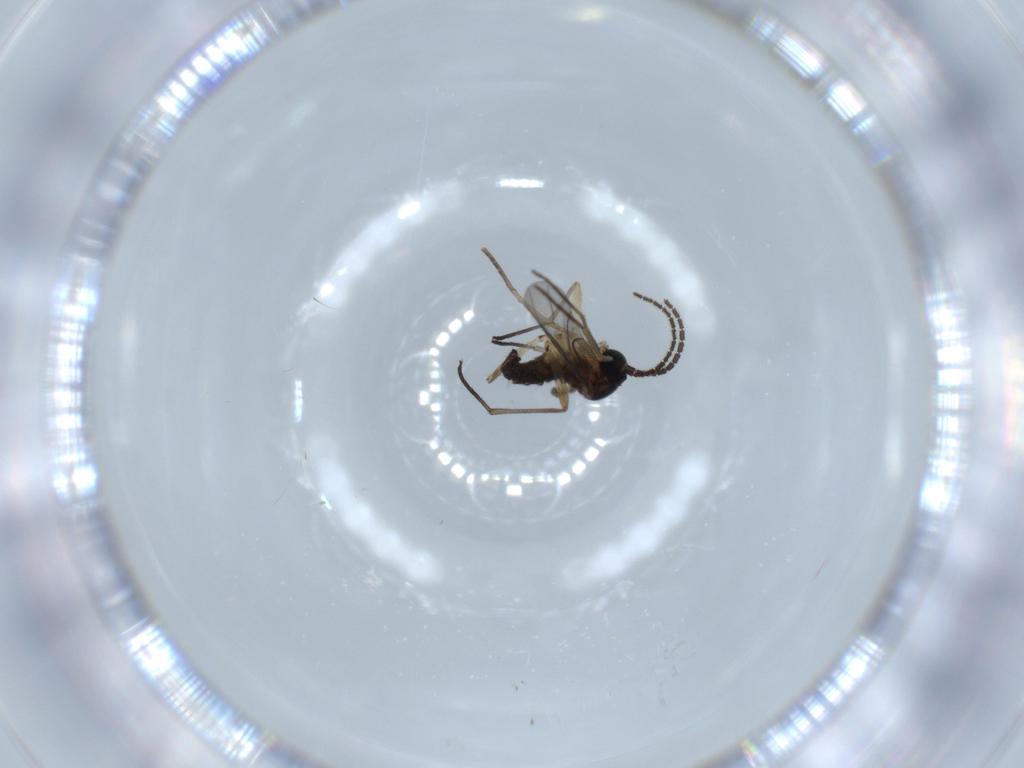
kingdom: Animalia
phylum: Arthropoda
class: Insecta
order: Diptera
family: Sciaridae
